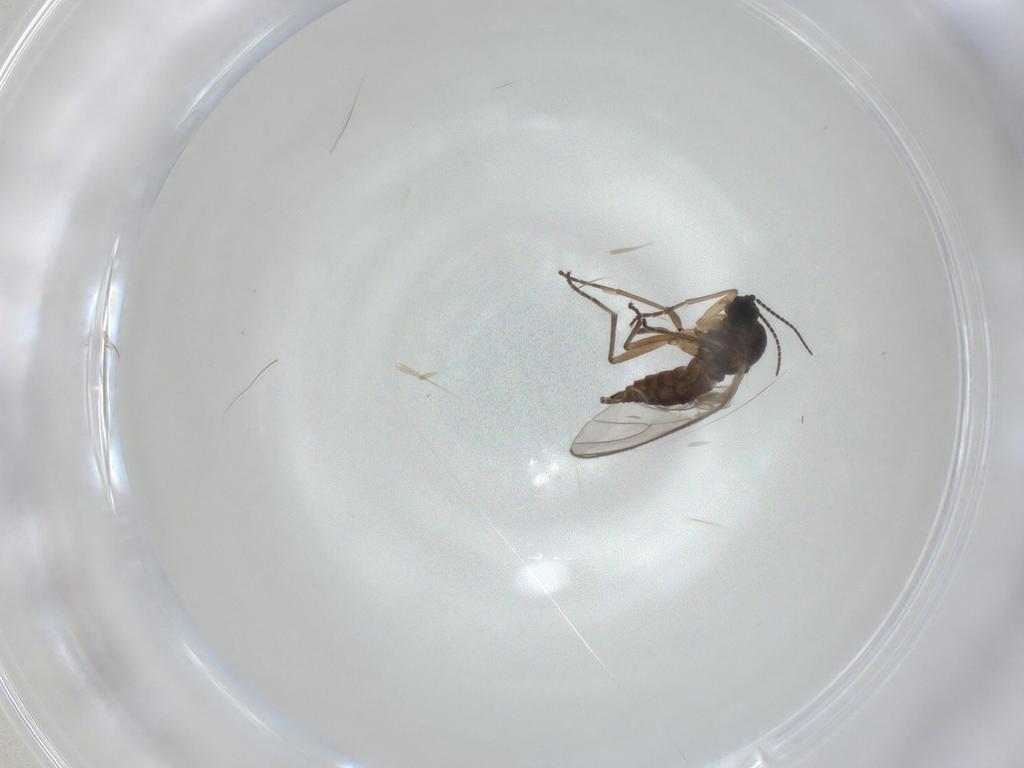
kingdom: Animalia
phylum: Arthropoda
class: Insecta
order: Diptera
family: Sciaridae
